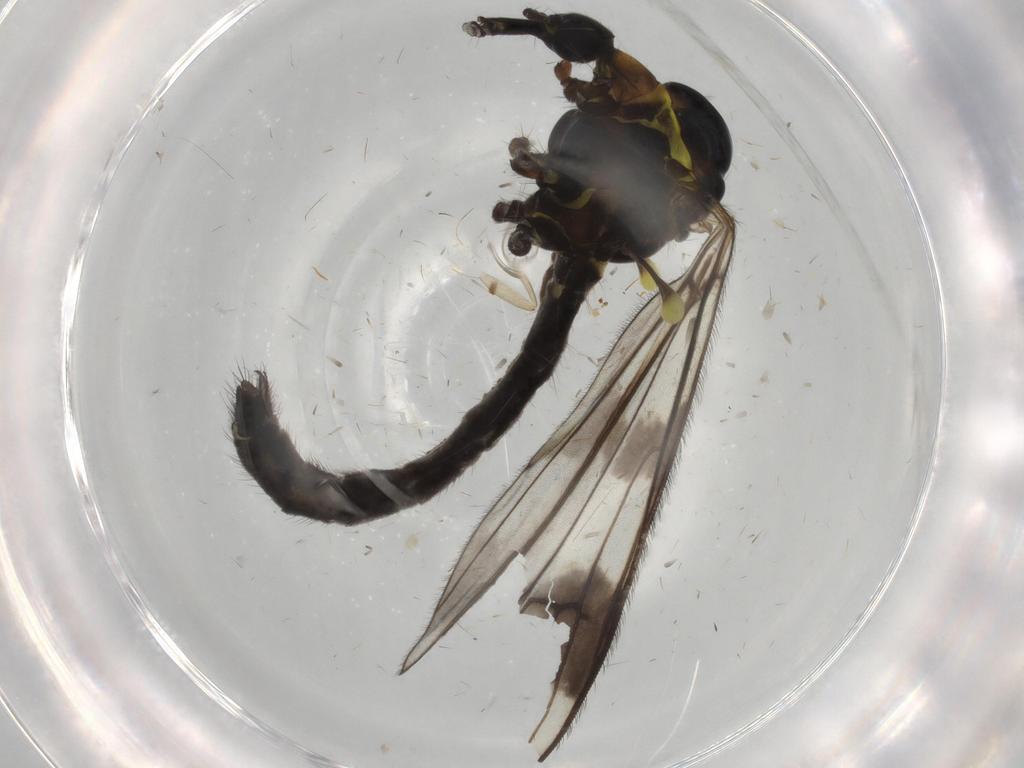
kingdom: Animalia
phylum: Arthropoda
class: Insecta
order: Diptera
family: Limoniidae
